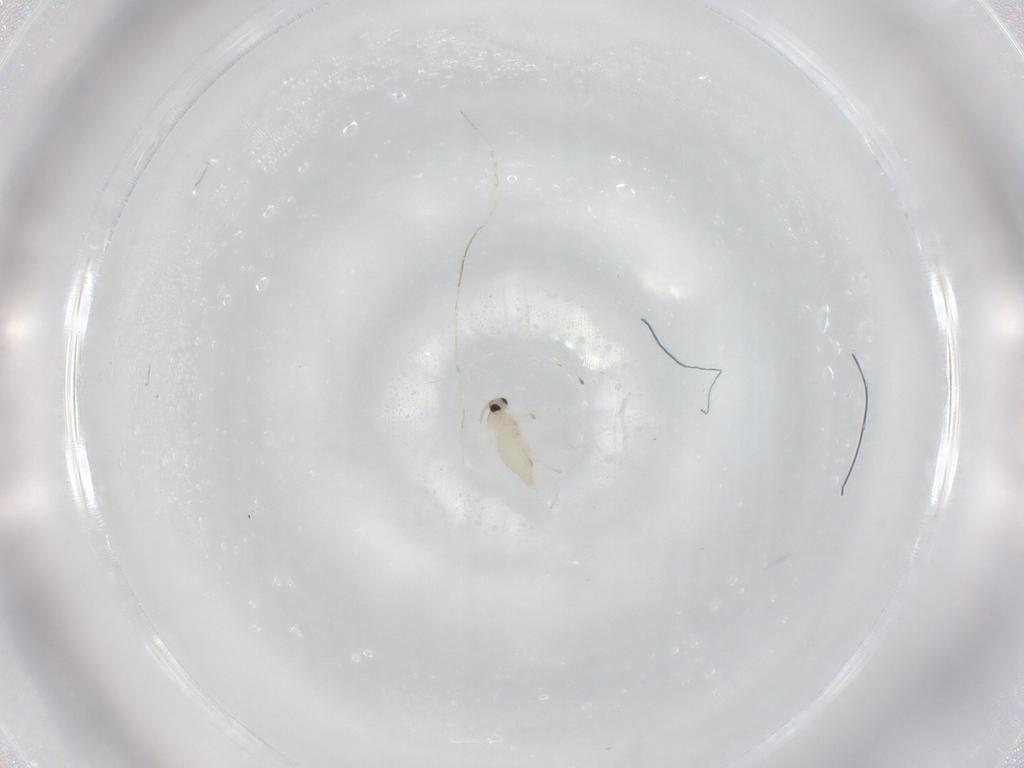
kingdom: Animalia
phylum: Arthropoda
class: Insecta
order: Diptera
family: Cecidomyiidae
